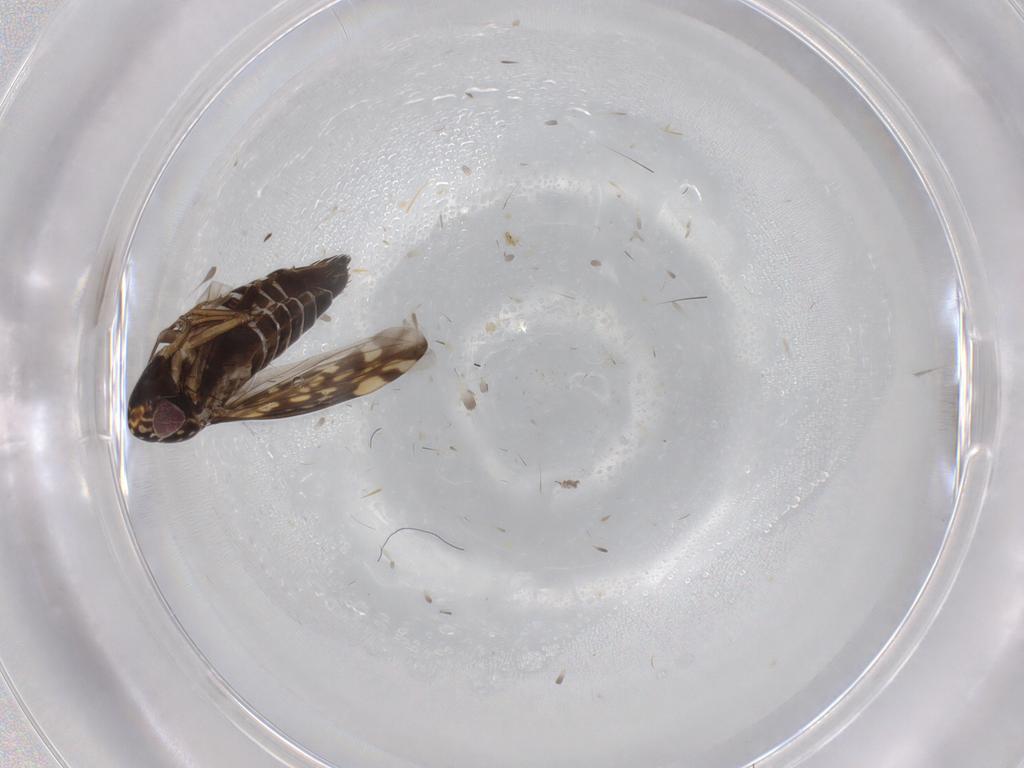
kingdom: Animalia
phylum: Arthropoda
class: Insecta
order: Hemiptera
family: Cicadellidae
